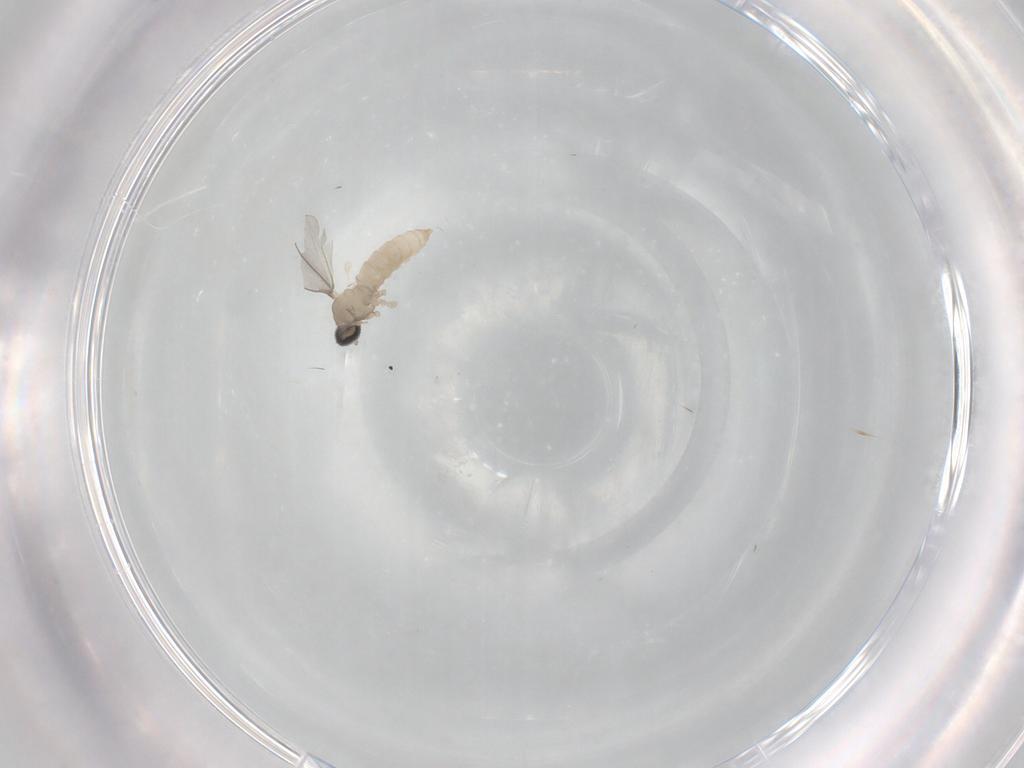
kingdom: Animalia
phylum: Arthropoda
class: Insecta
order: Diptera
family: Cecidomyiidae
